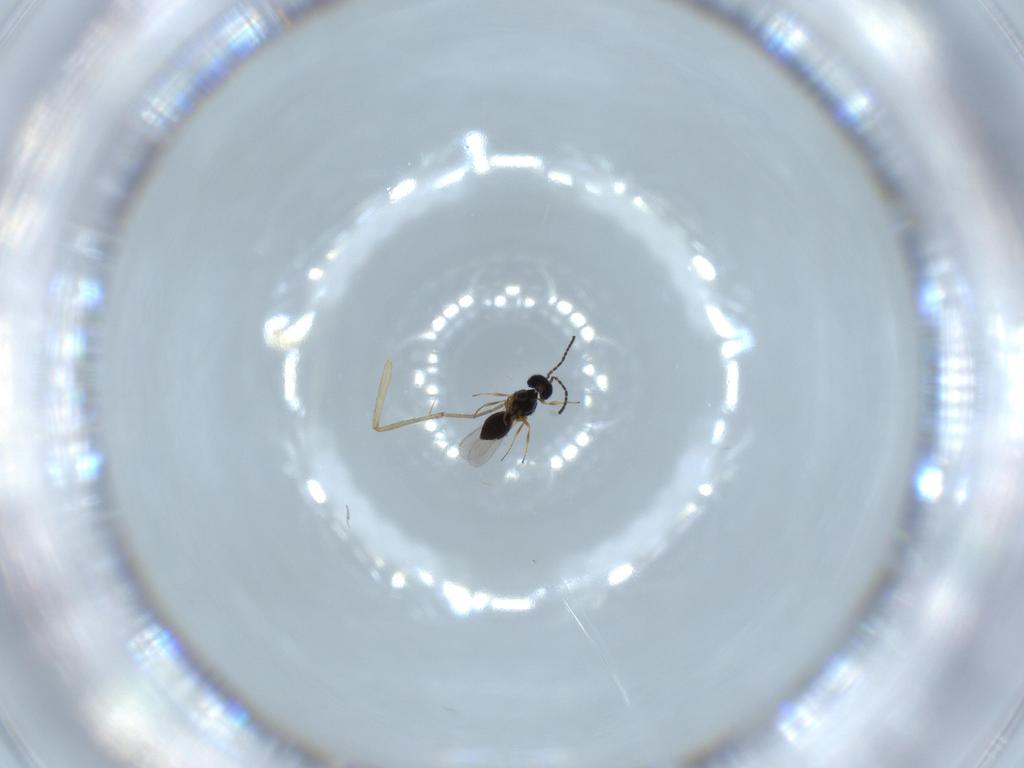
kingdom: Animalia
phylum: Arthropoda
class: Insecta
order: Hymenoptera
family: Scelionidae
